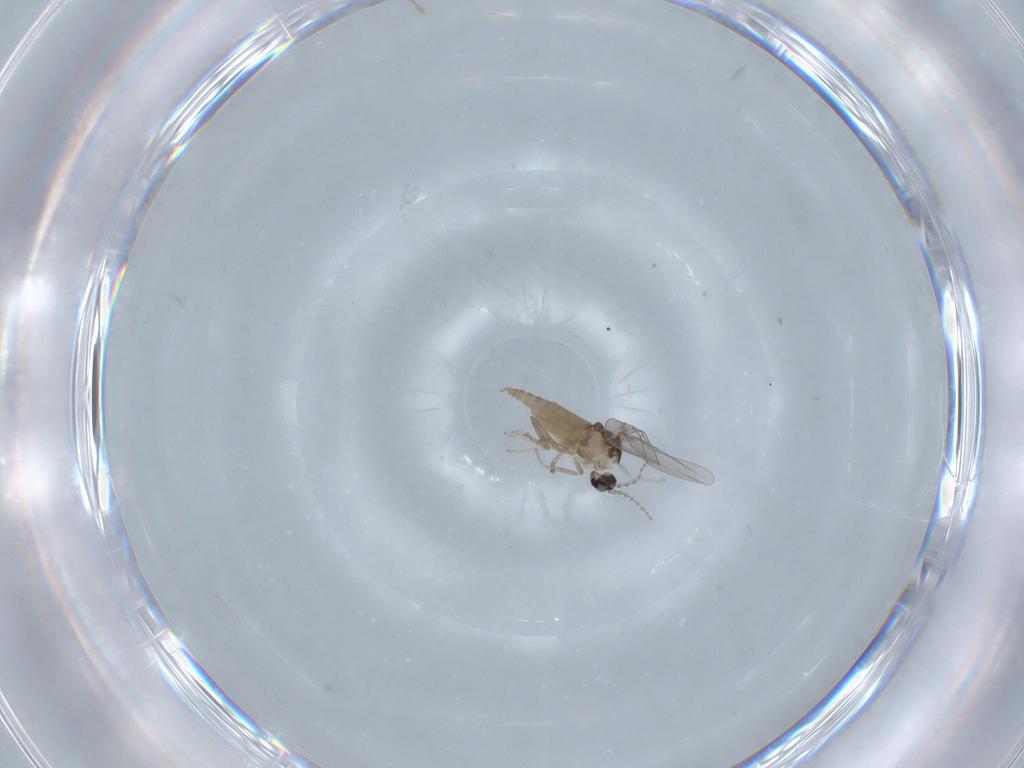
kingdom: Animalia
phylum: Arthropoda
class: Insecta
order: Diptera
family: Cecidomyiidae
